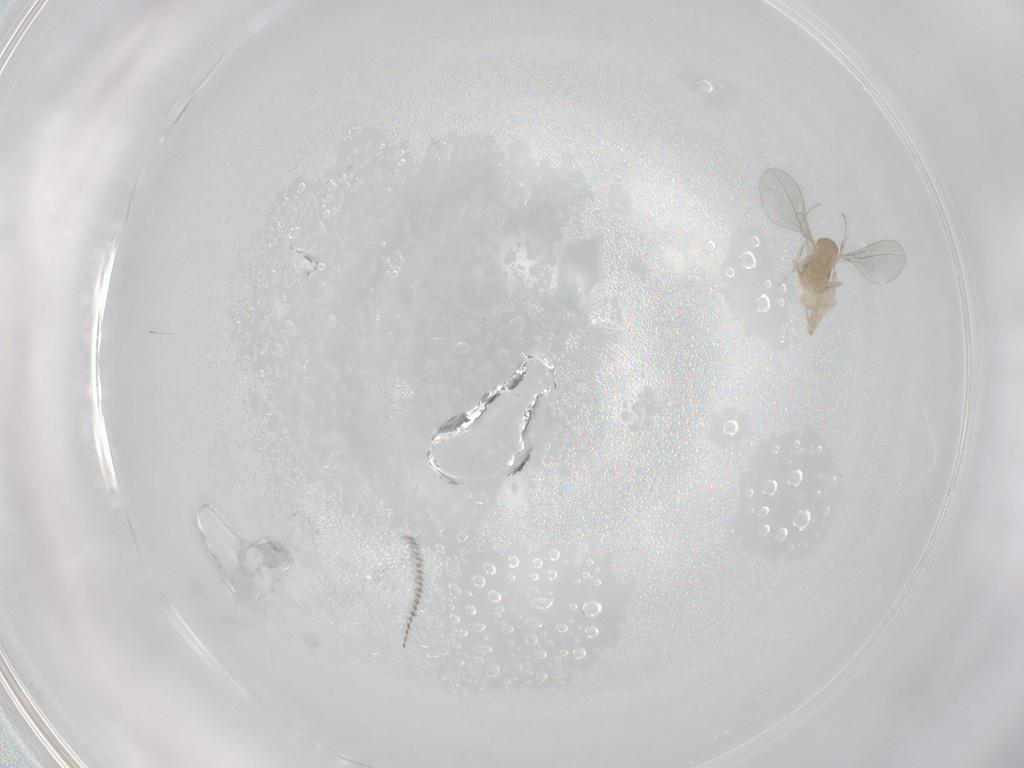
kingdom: Animalia
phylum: Arthropoda
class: Insecta
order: Diptera
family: Cecidomyiidae
